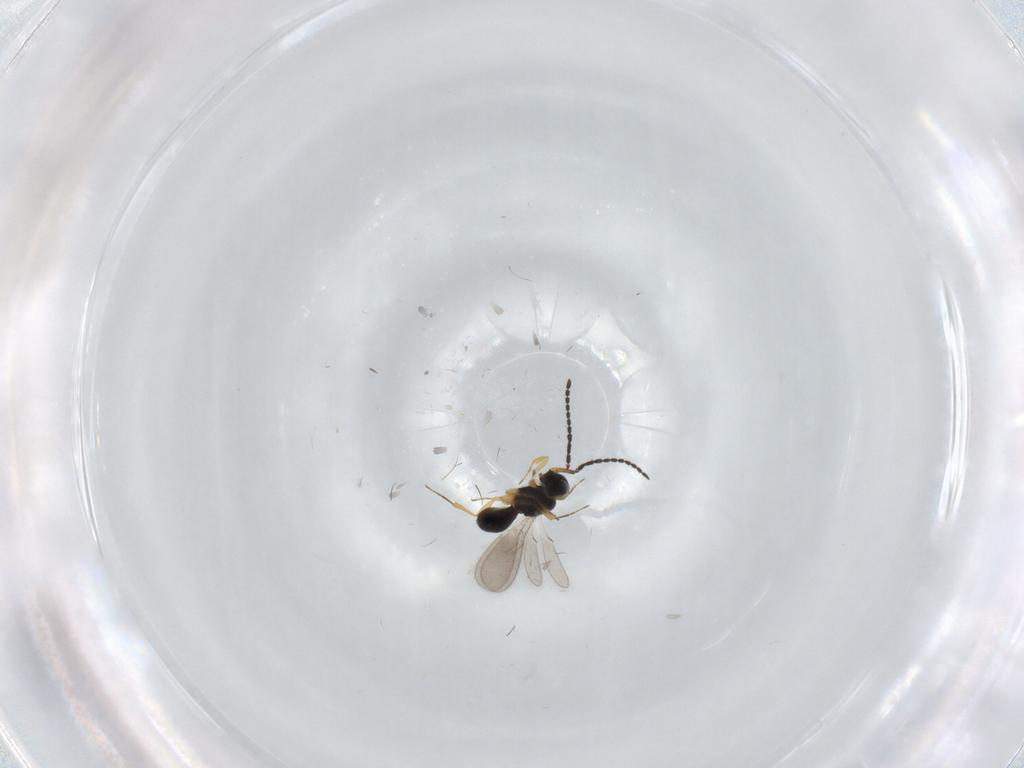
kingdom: Animalia
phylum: Arthropoda
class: Insecta
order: Hymenoptera
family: Scelionidae
